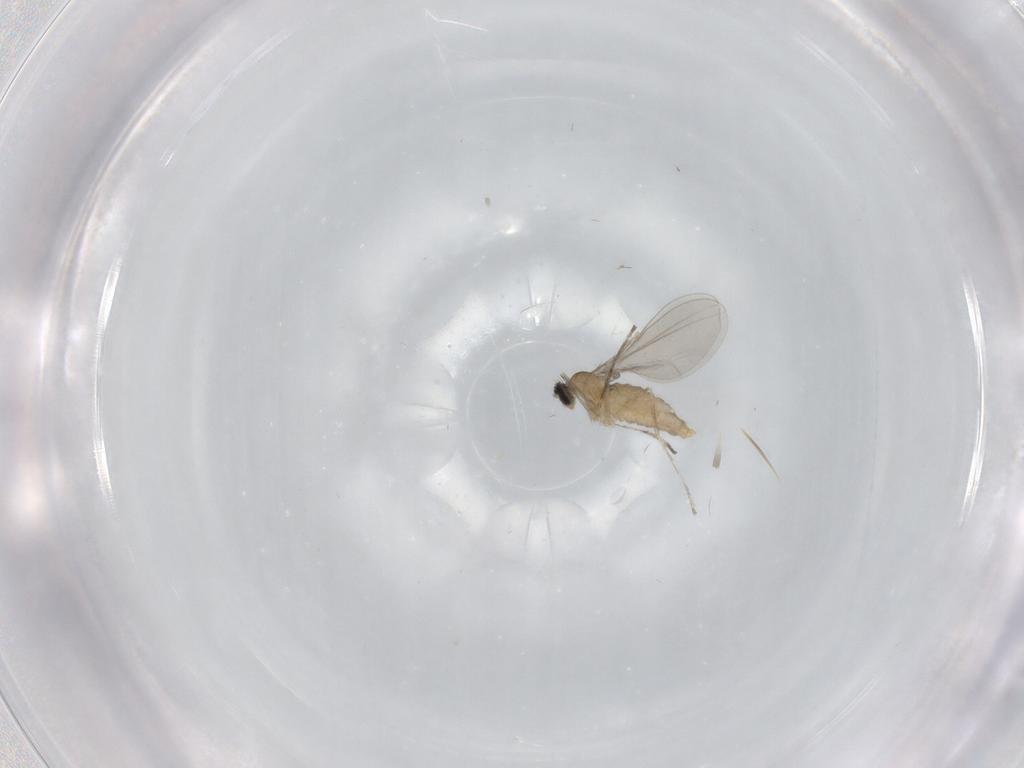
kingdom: Animalia
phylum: Arthropoda
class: Insecta
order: Diptera
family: Cecidomyiidae
